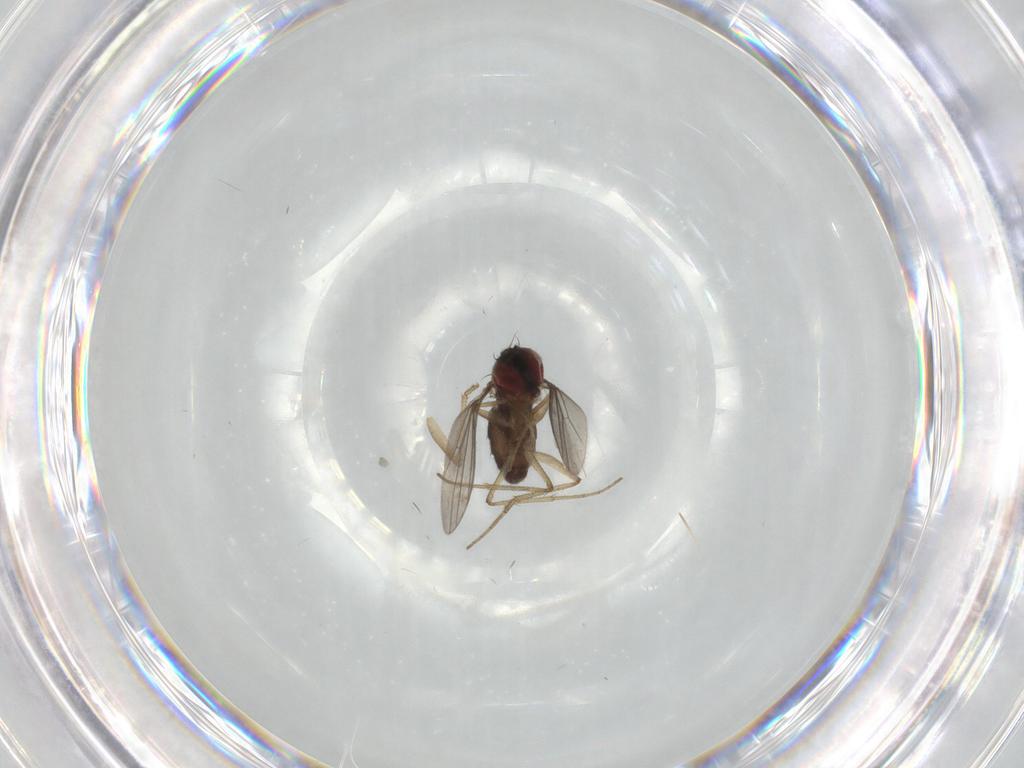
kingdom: Animalia
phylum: Arthropoda
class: Insecta
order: Diptera
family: Dolichopodidae
